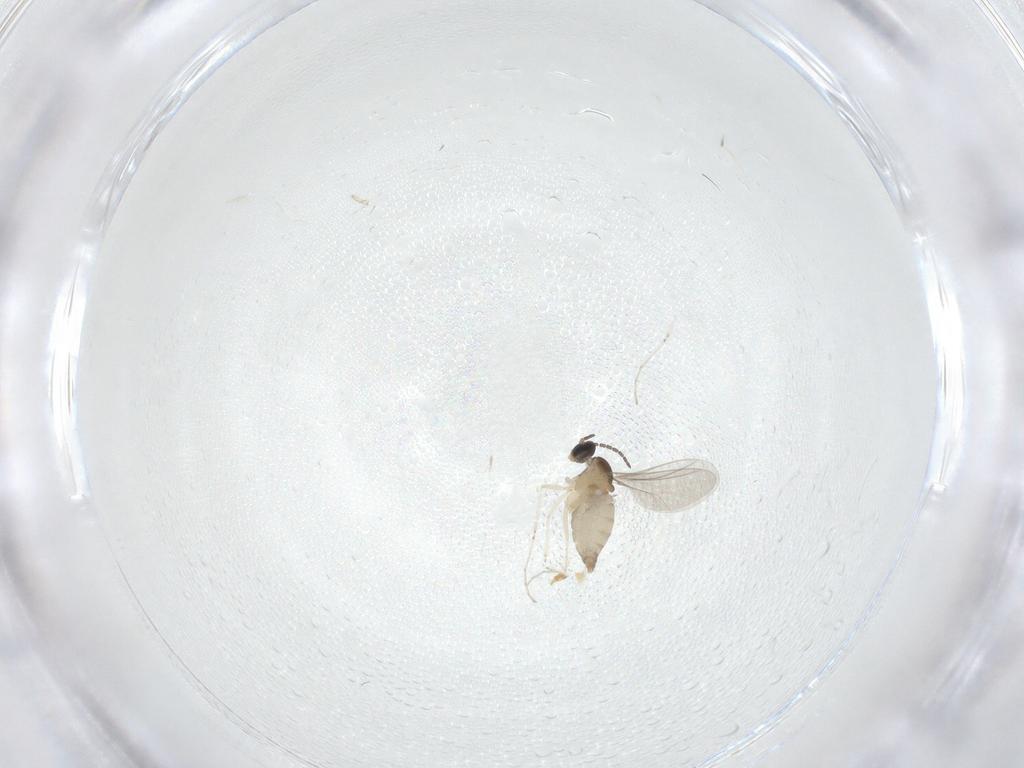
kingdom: Animalia
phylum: Arthropoda
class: Insecta
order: Diptera
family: Cecidomyiidae
